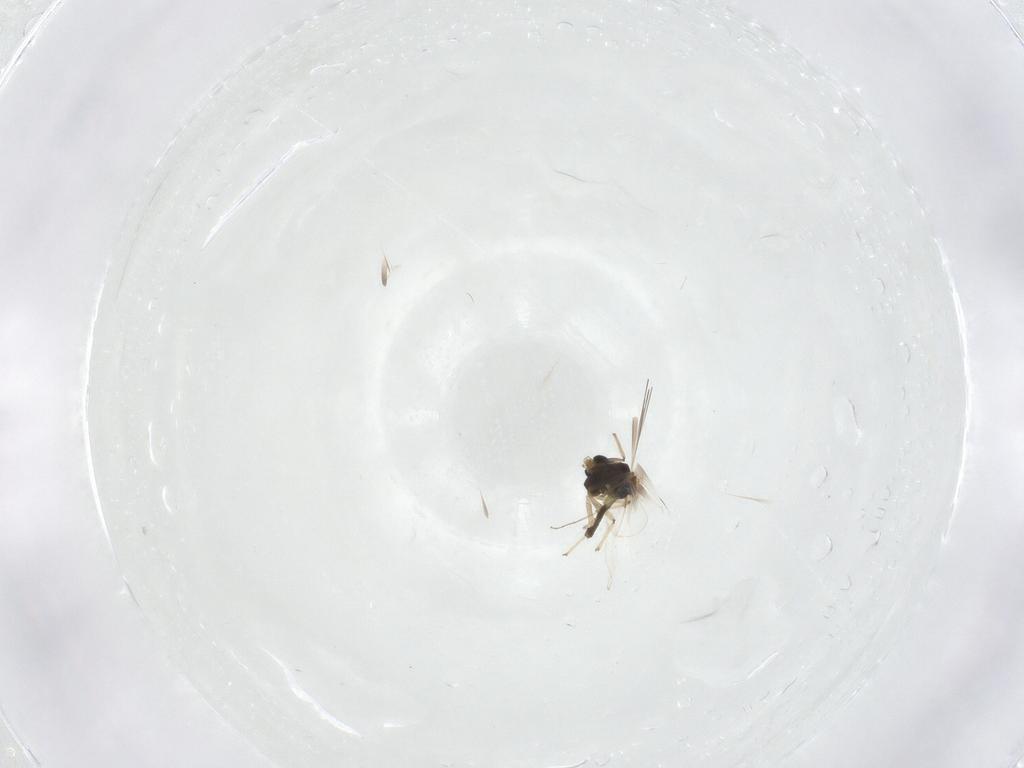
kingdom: Animalia
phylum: Arthropoda
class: Insecta
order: Diptera
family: Chironomidae
